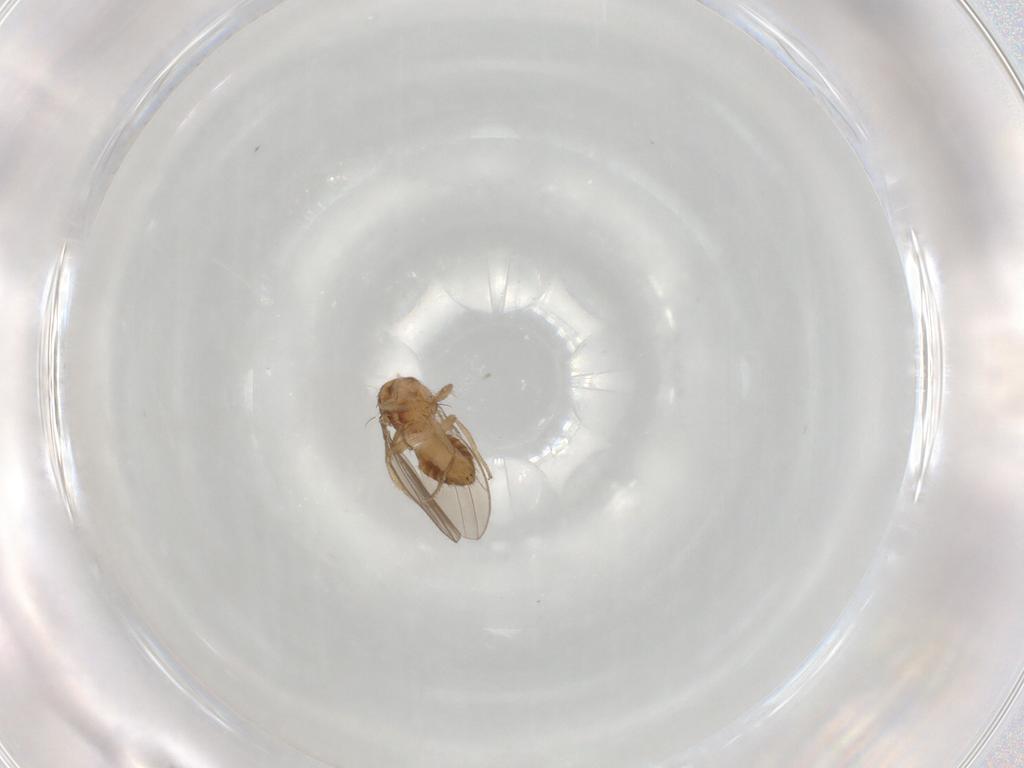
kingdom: Animalia
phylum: Arthropoda
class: Insecta
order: Diptera
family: Drosophilidae
